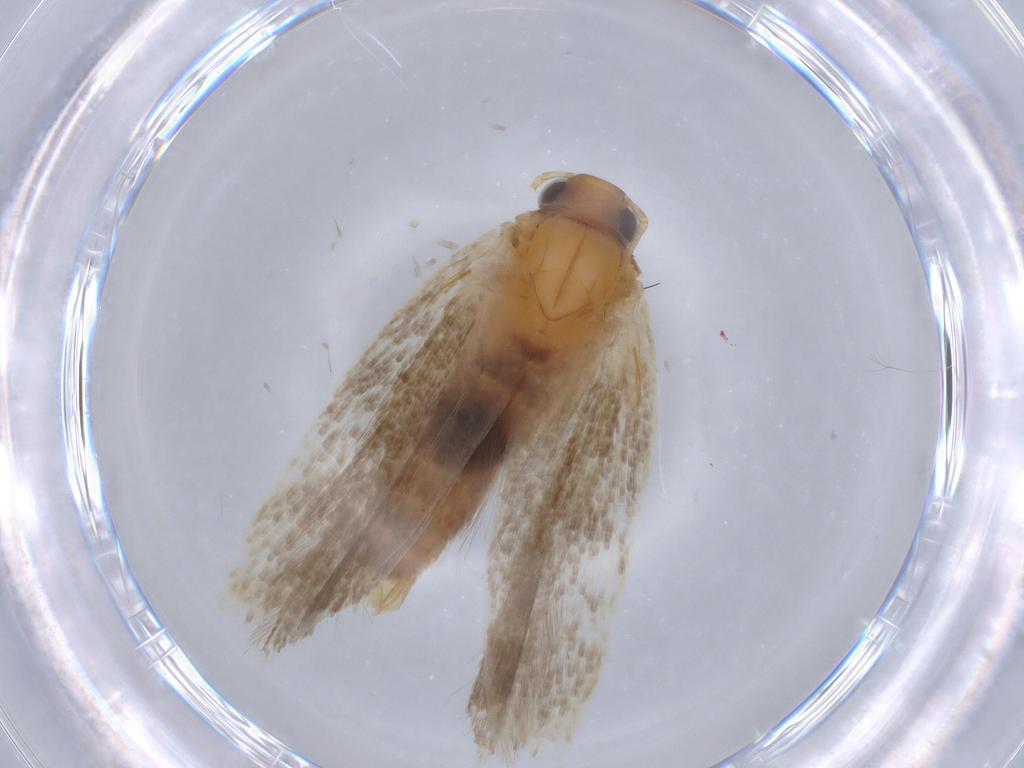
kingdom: Animalia
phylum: Arthropoda
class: Insecta
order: Lepidoptera
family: Gelechiidae
